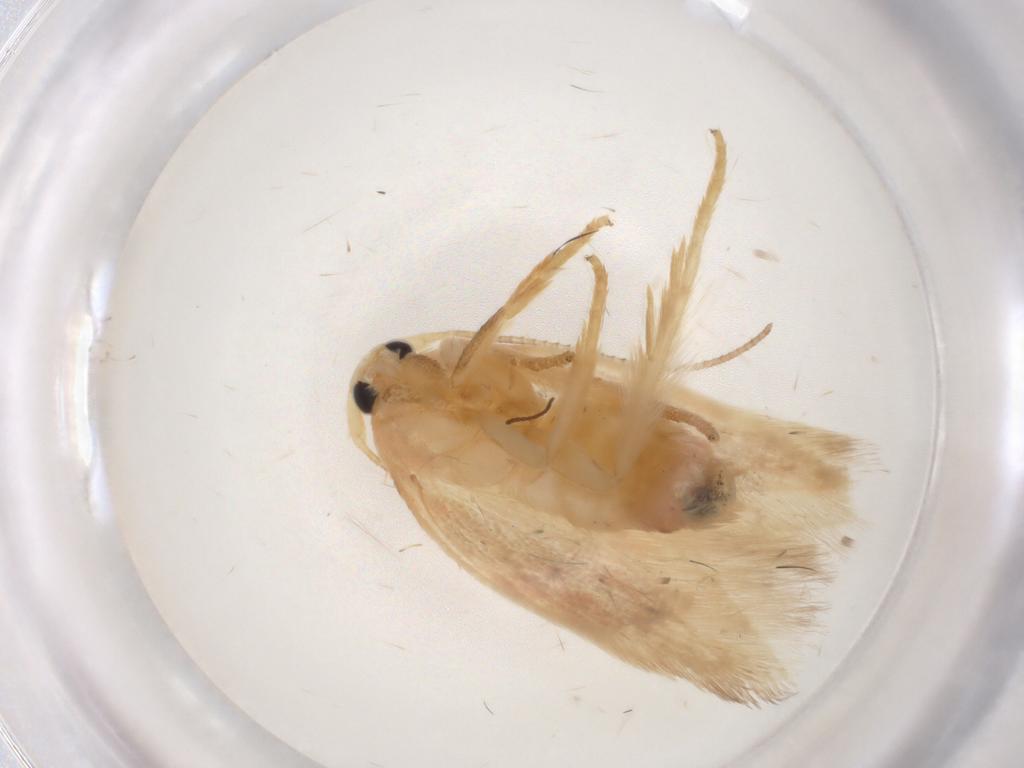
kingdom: Animalia
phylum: Arthropoda
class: Insecta
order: Lepidoptera
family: Geometridae
